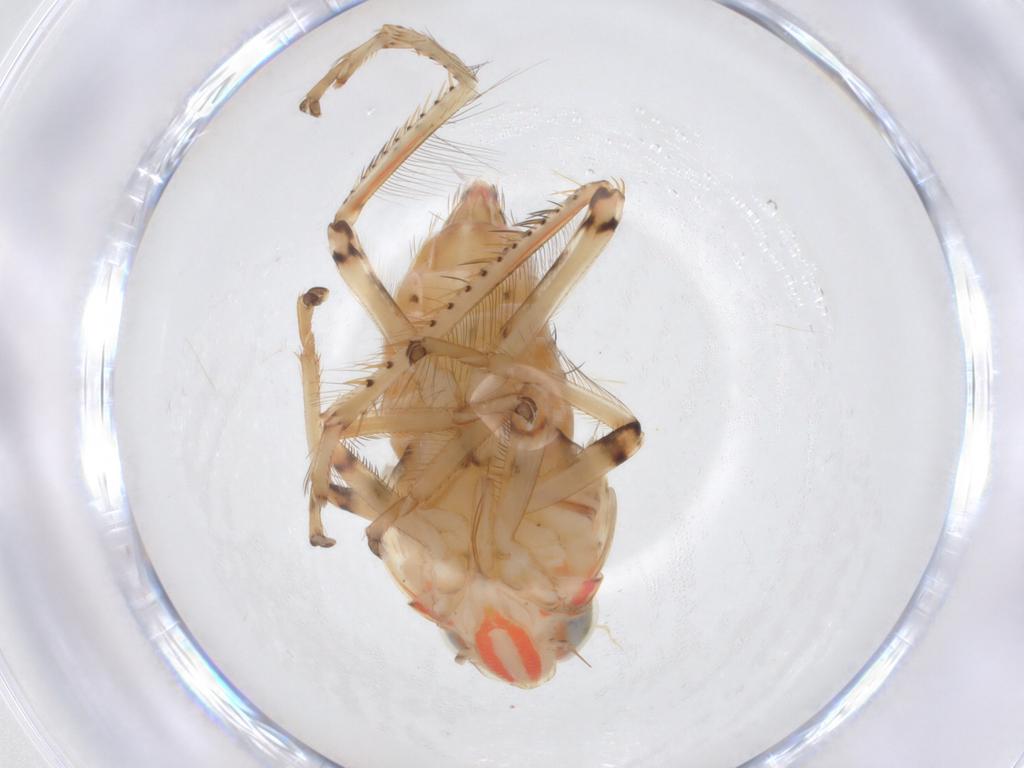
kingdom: Animalia
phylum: Arthropoda
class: Insecta
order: Hemiptera
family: Cicadellidae
